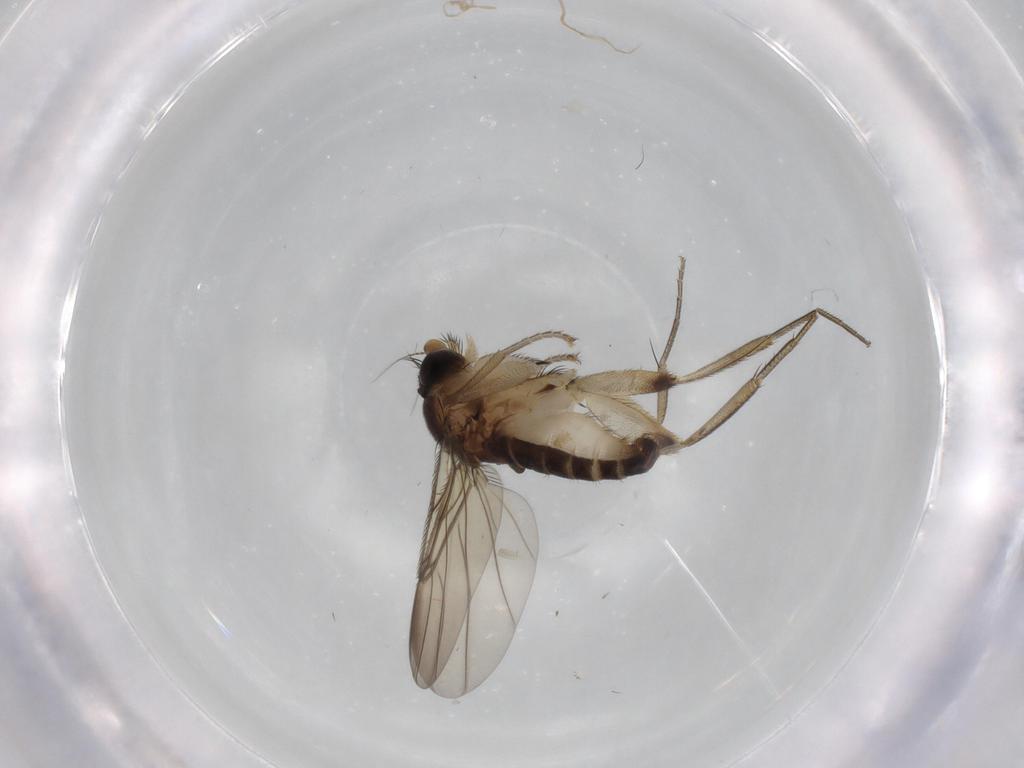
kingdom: Animalia
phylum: Arthropoda
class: Insecta
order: Diptera
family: Phoridae
